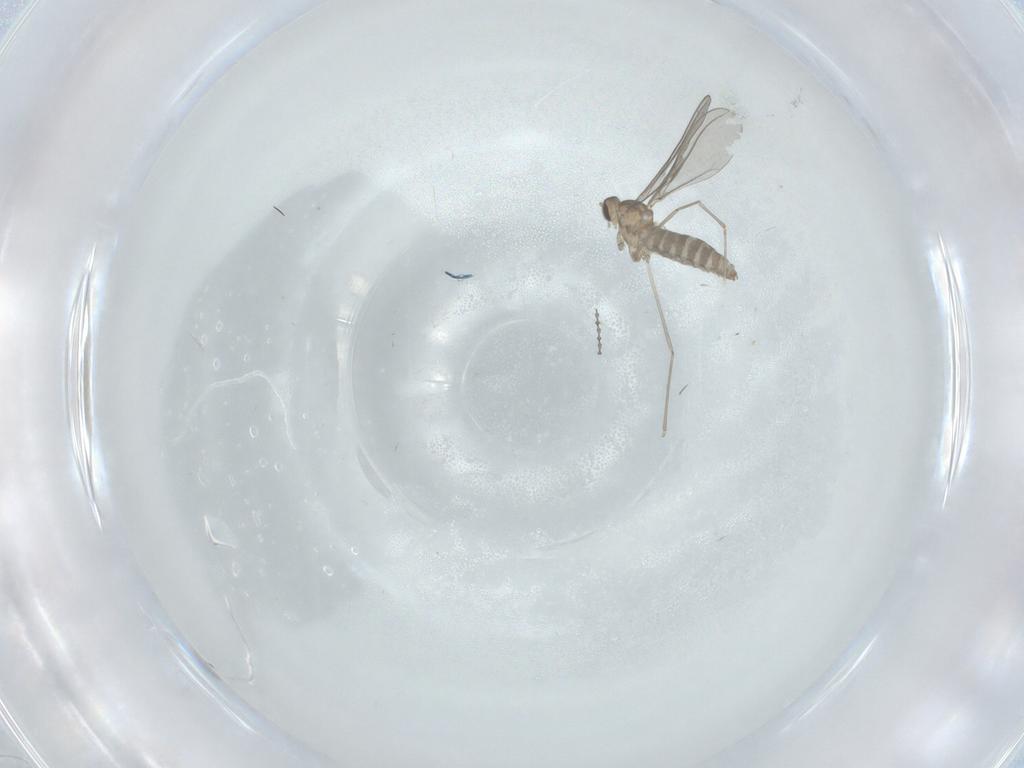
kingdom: Animalia
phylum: Arthropoda
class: Insecta
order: Diptera
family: Cecidomyiidae
